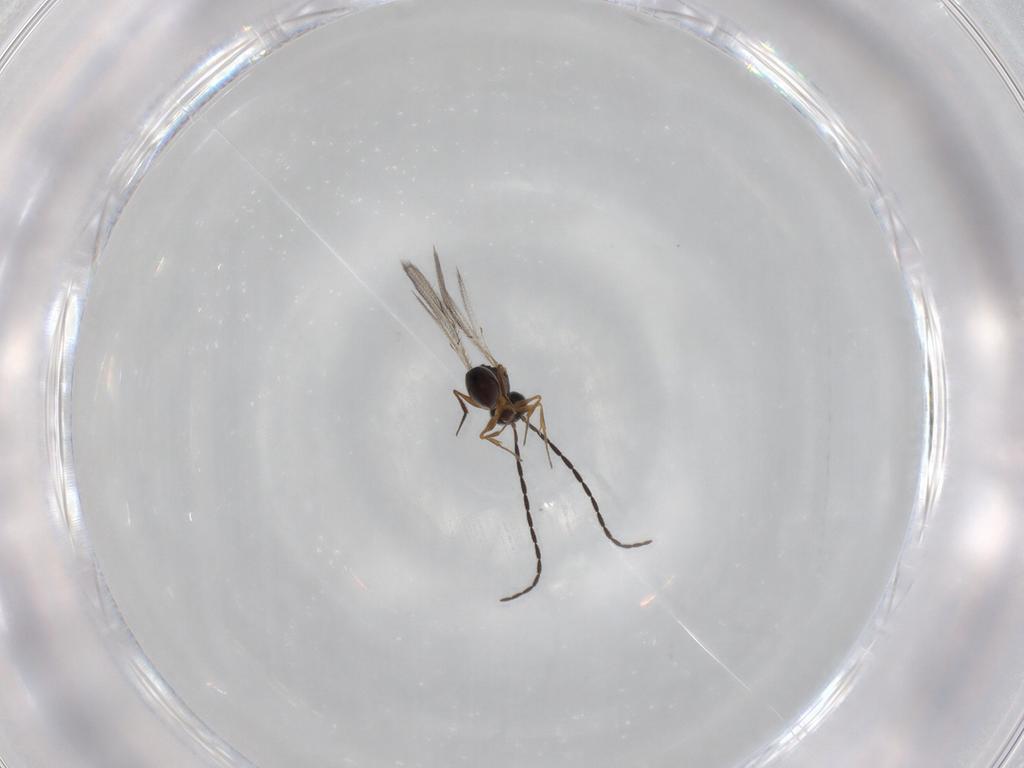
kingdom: Animalia
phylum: Arthropoda
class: Insecta
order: Hymenoptera
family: Figitidae
